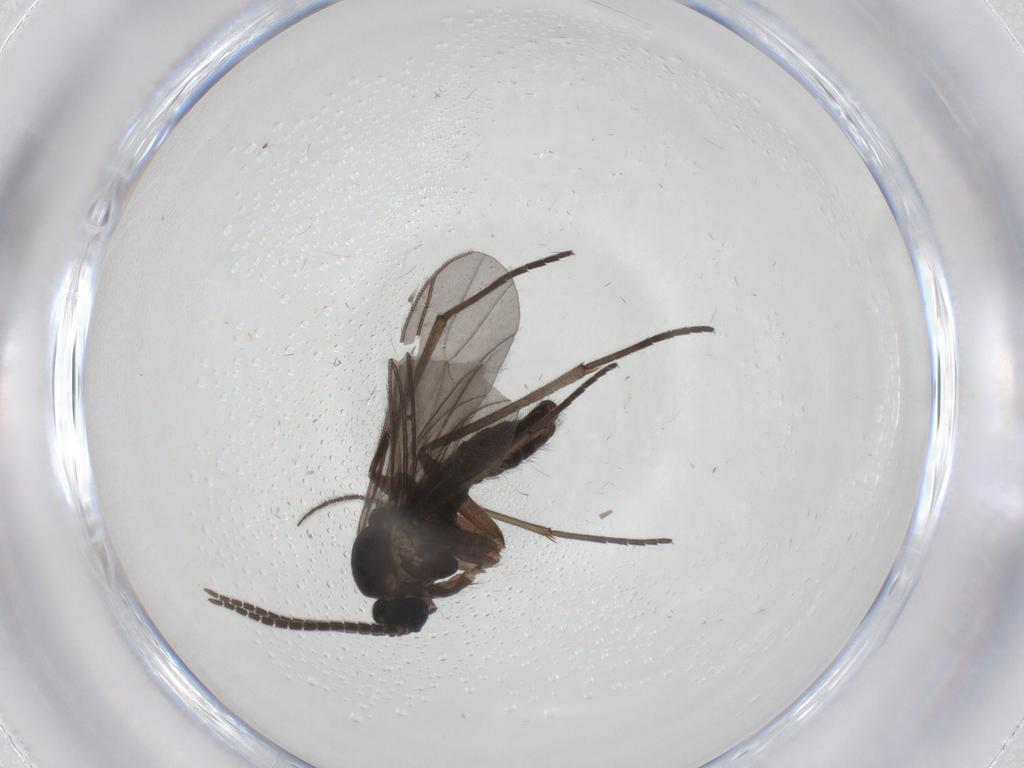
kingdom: Animalia
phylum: Arthropoda
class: Insecta
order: Diptera
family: Sciaridae
